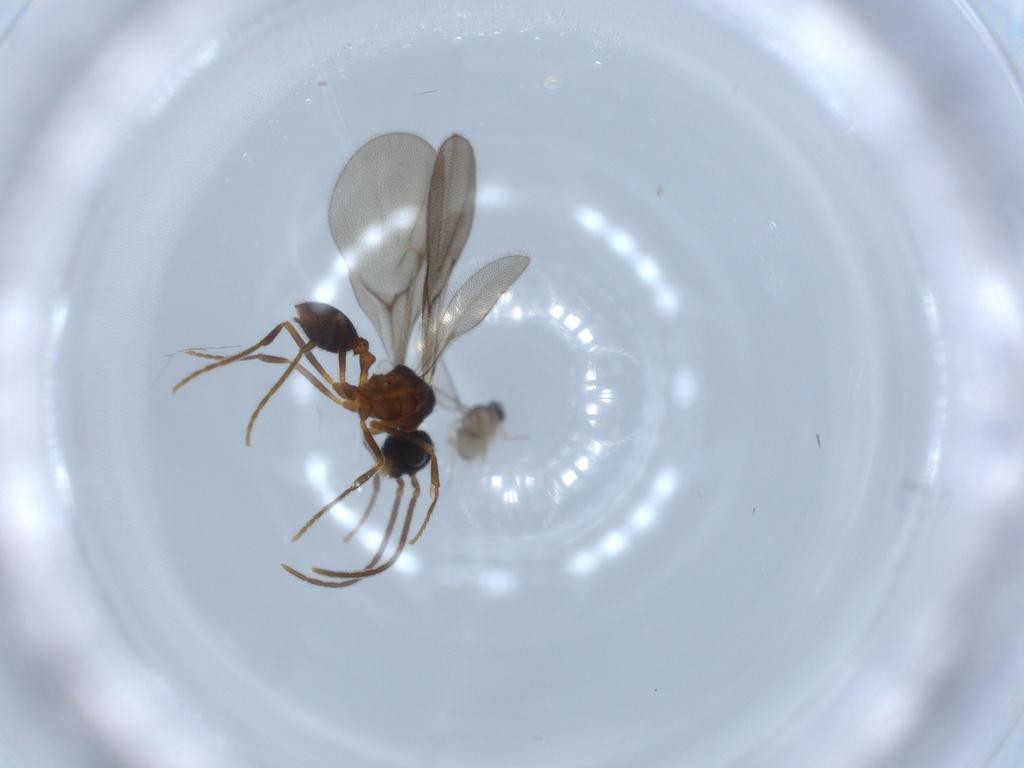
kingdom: Animalia
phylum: Arthropoda
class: Insecta
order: Diptera
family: Cecidomyiidae
